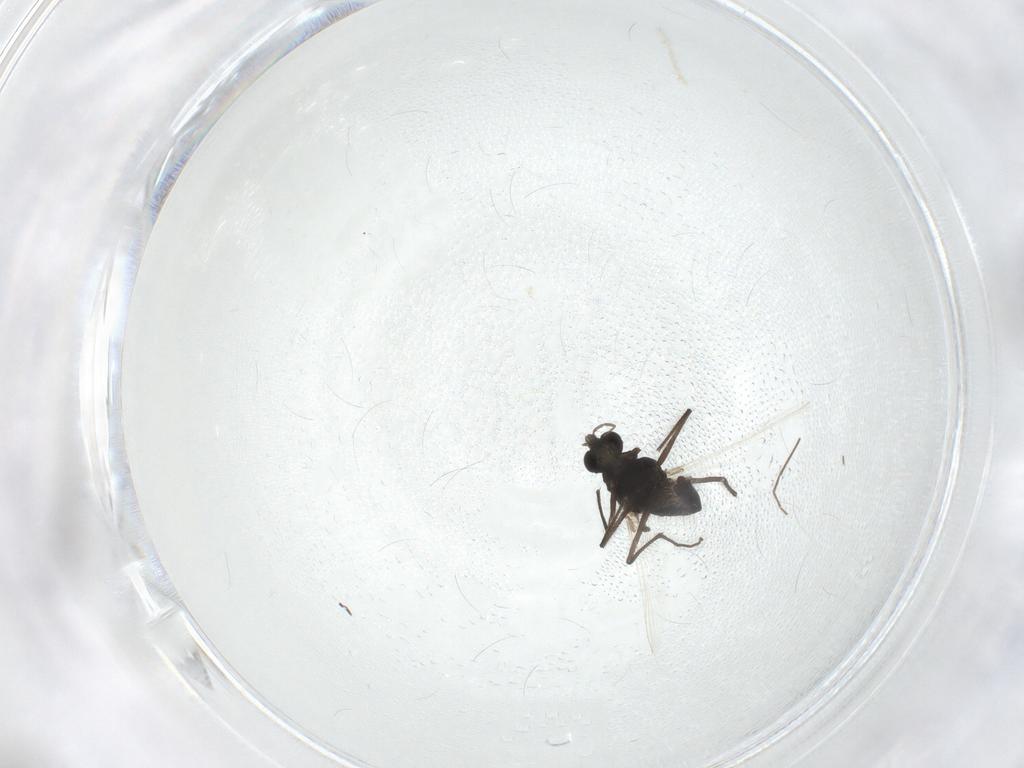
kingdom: Animalia
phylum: Arthropoda
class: Insecta
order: Diptera
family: Chironomidae
